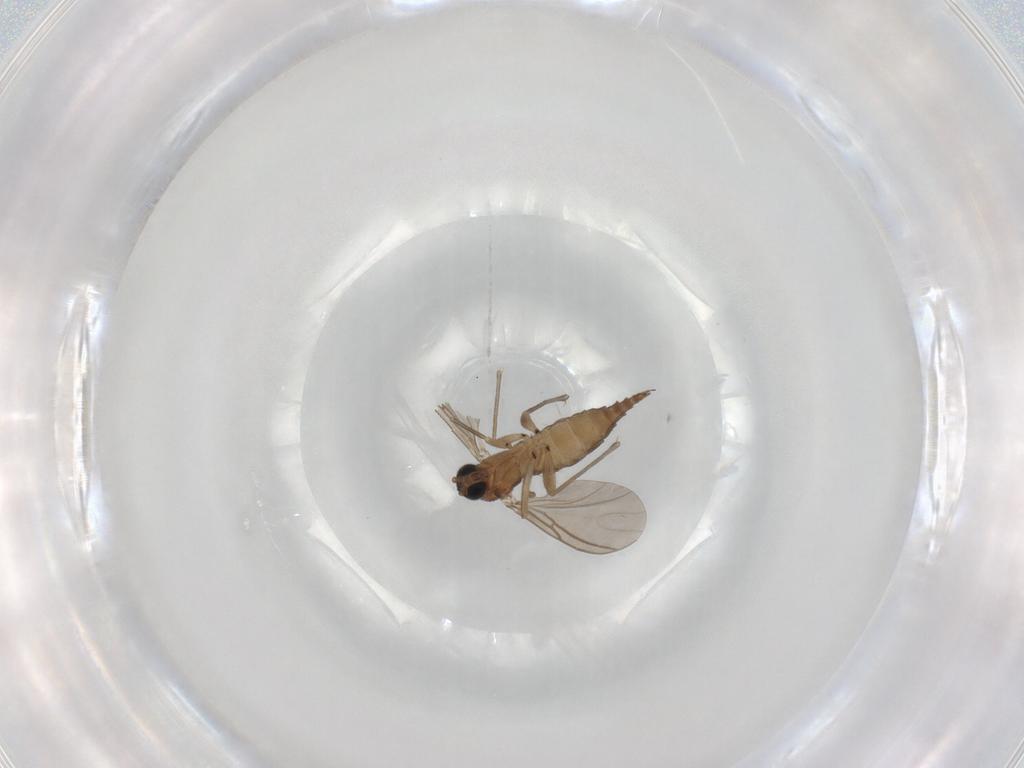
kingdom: Animalia
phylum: Arthropoda
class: Insecta
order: Diptera
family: Sciaridae
